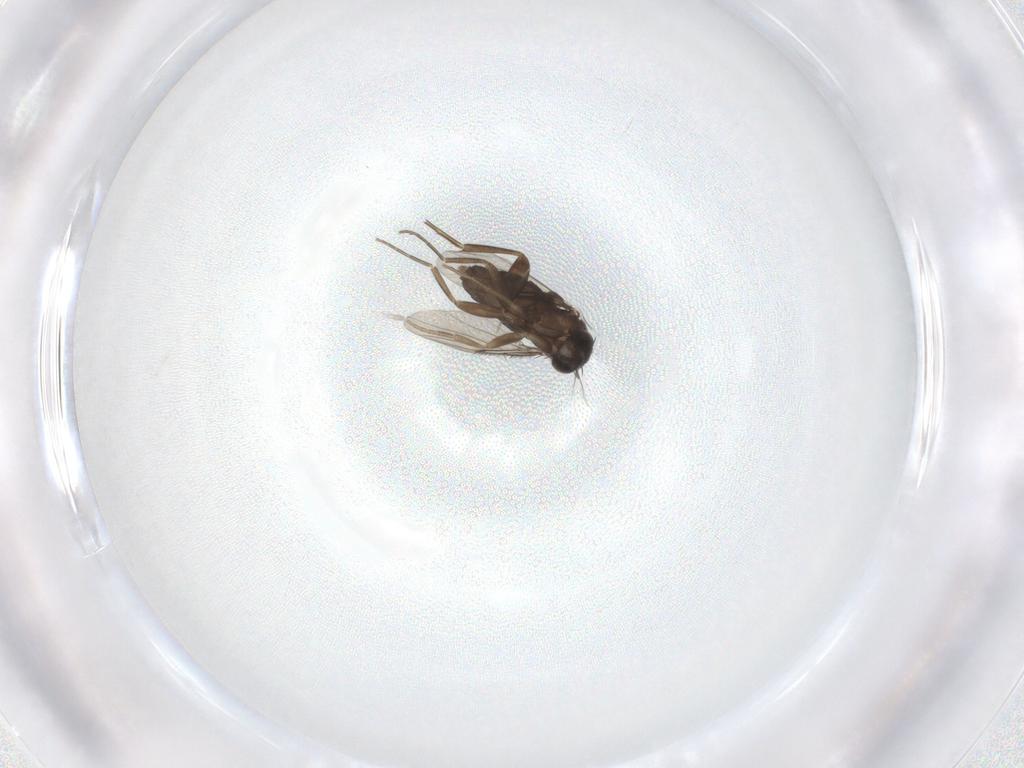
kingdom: Animalia
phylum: Arthropoda
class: Insecta
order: Diptera
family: Phoridae
